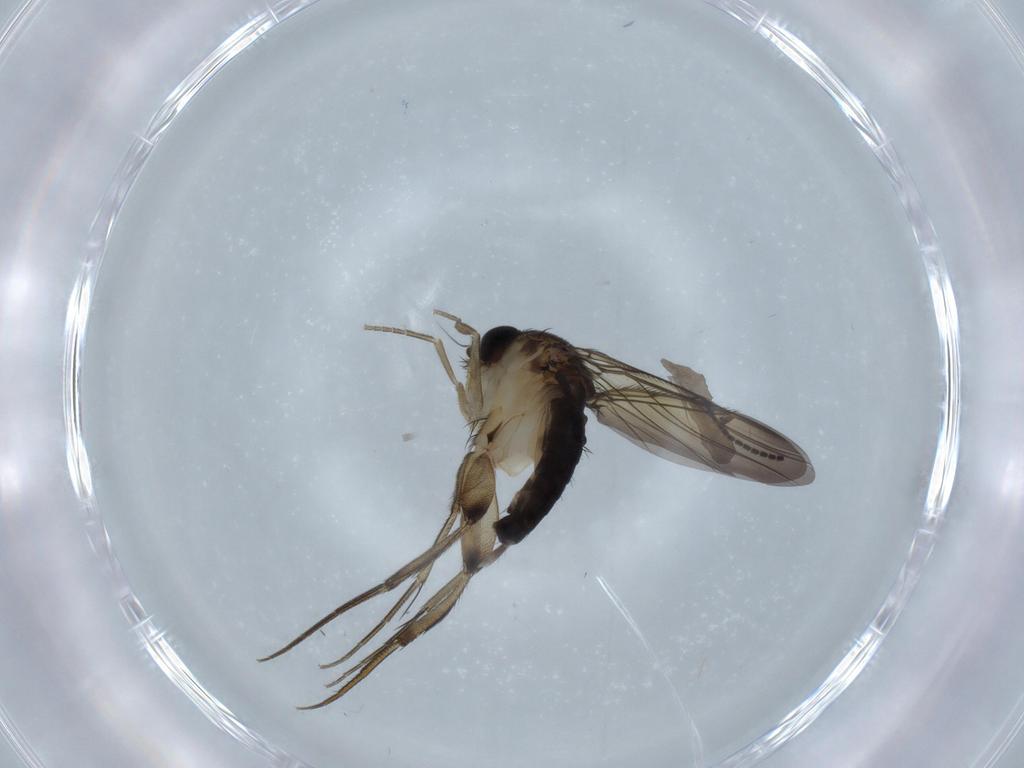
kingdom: Animalia
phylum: Arthropoda
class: Insecta
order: Diptera
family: Sciaridae
